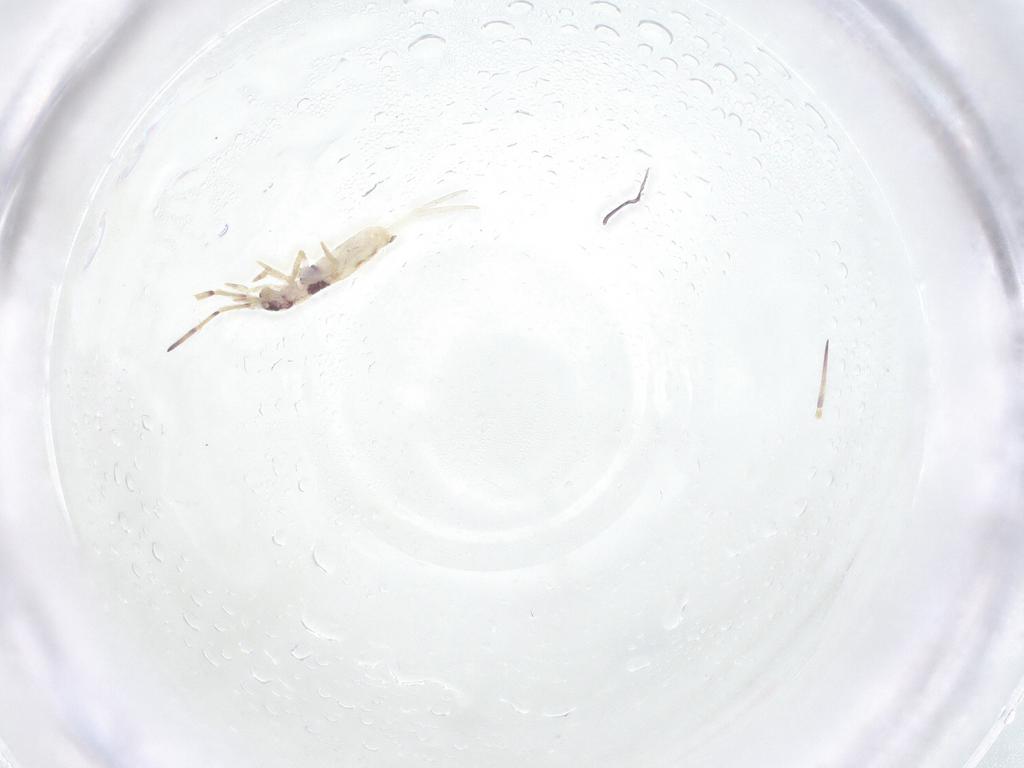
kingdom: Animalia
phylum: Arthropoda
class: Collembola
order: Entomobryomorpha
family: Entomobryidae
